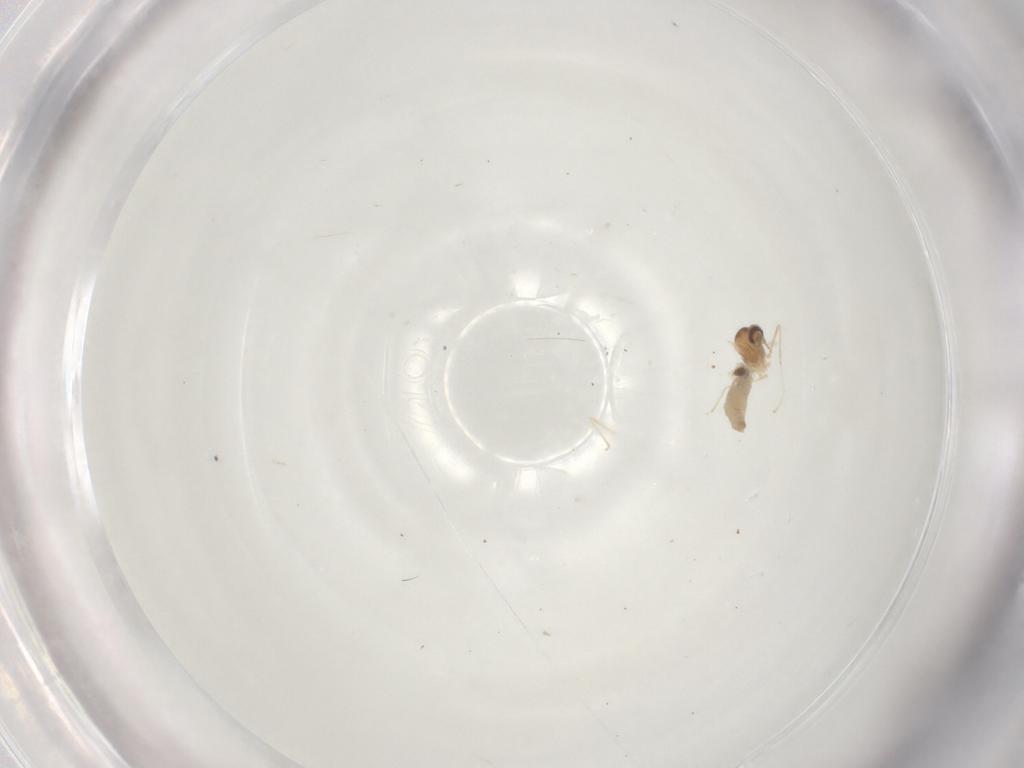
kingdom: Animalia
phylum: Arthropoda
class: Insecta
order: Diptera
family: Cecidomyiidae
